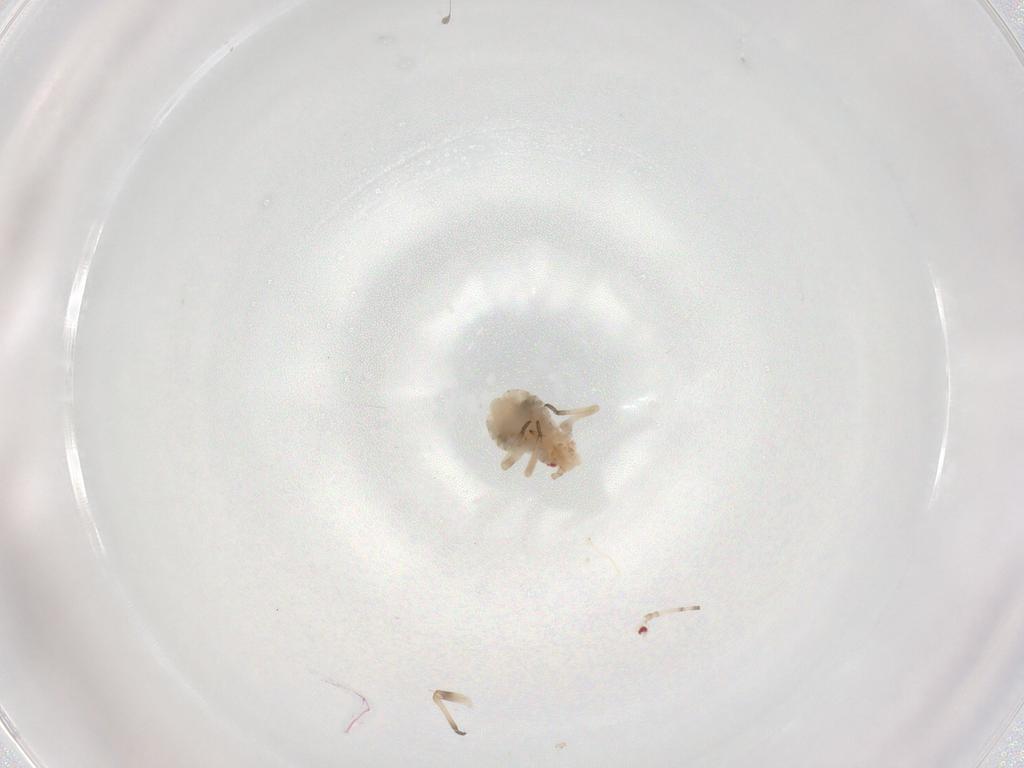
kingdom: Animalia
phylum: Arthropoda
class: Insecta
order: Hemiptera
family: Aphididae
